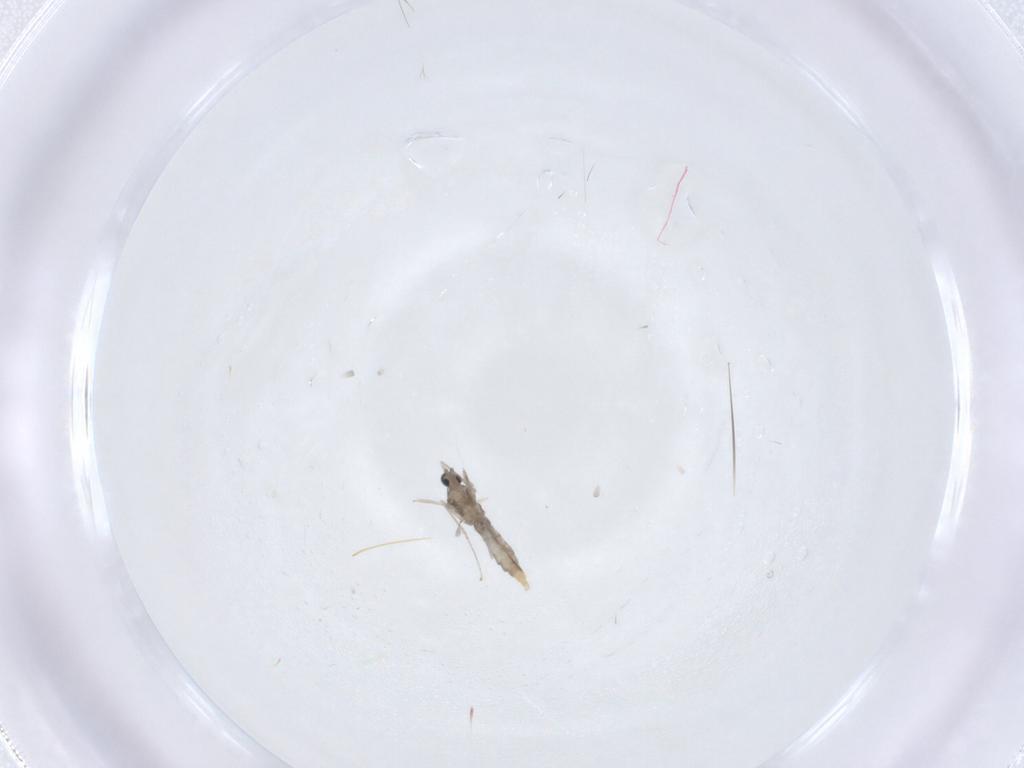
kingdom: Animalia
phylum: Arthropoda
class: Insecta
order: Diptera
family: Cecidomyiidae
